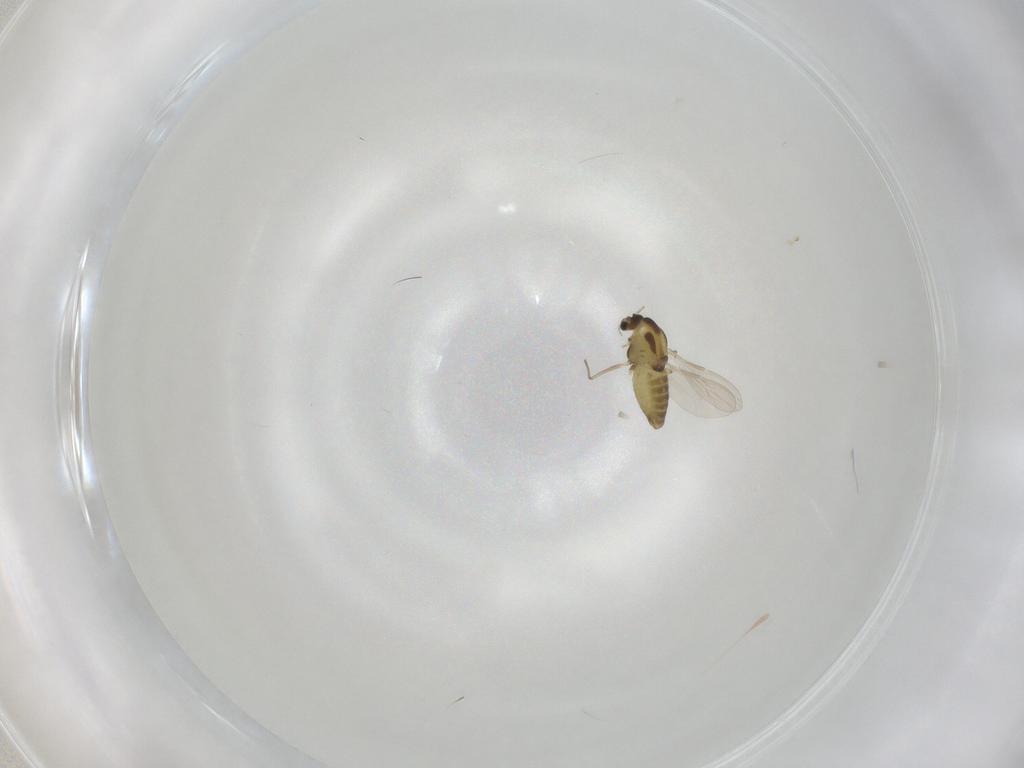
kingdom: Animalia
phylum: Arthropoda
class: Insecta
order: Diptera
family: Chironomidae
